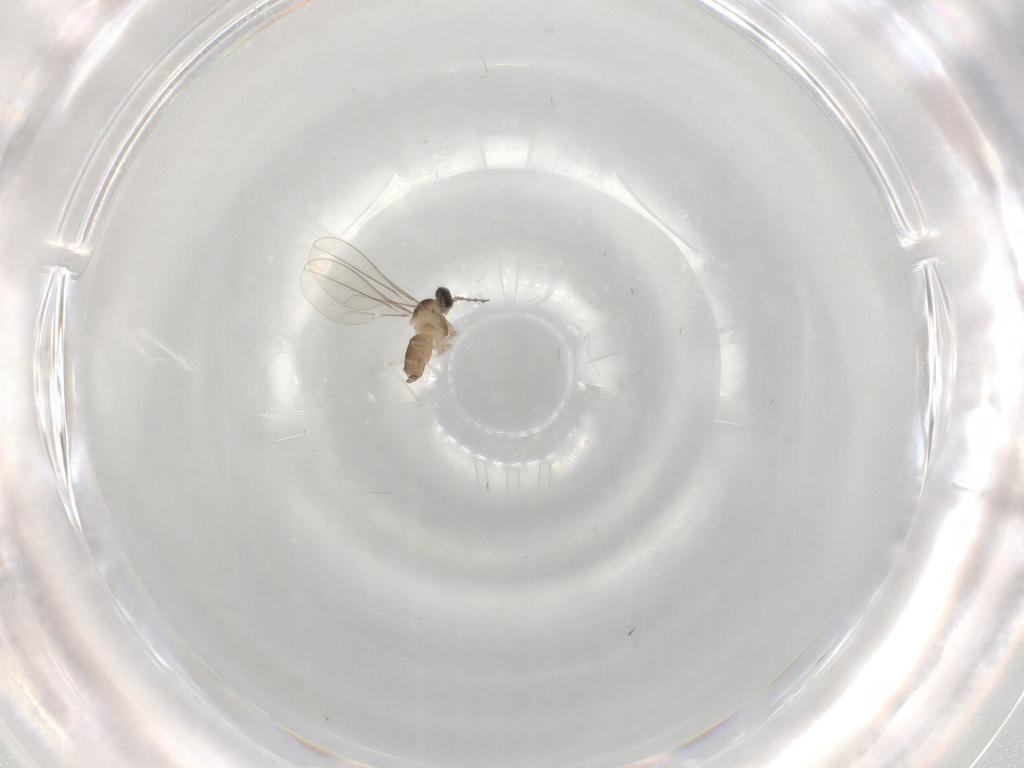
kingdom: Animalia
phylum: Arthropoda
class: Insecta
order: Diptera
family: Cecidomyiidae
